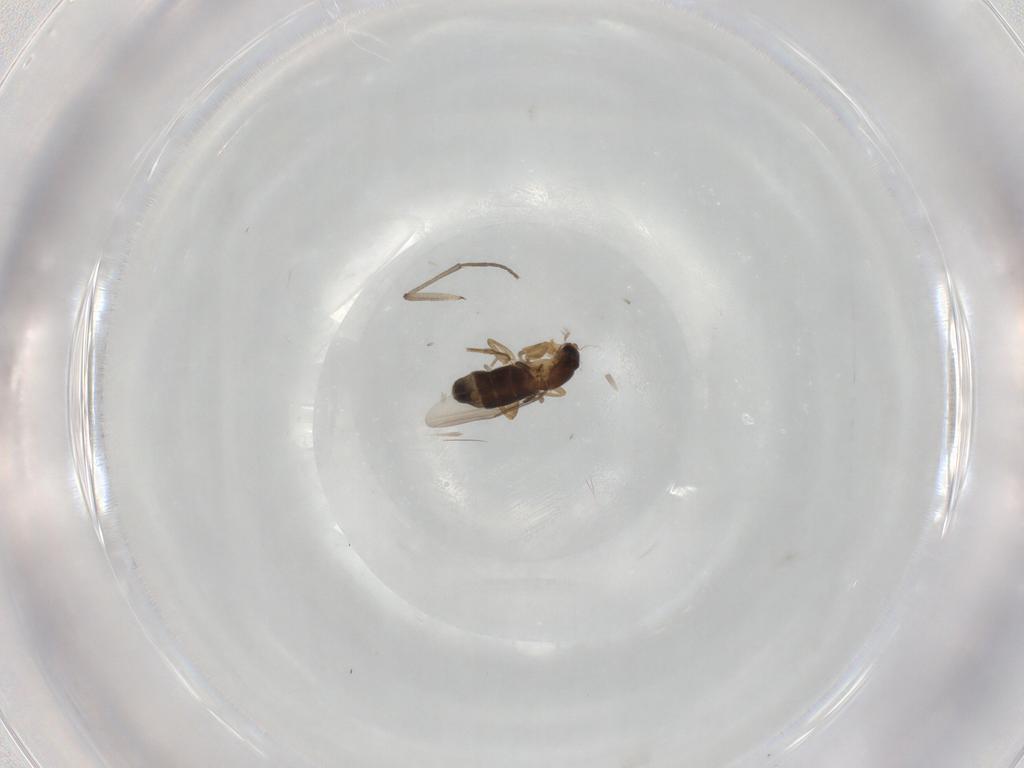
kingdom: Animalia
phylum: Arthropoda
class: Insecta
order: Diptera
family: Phoridae
